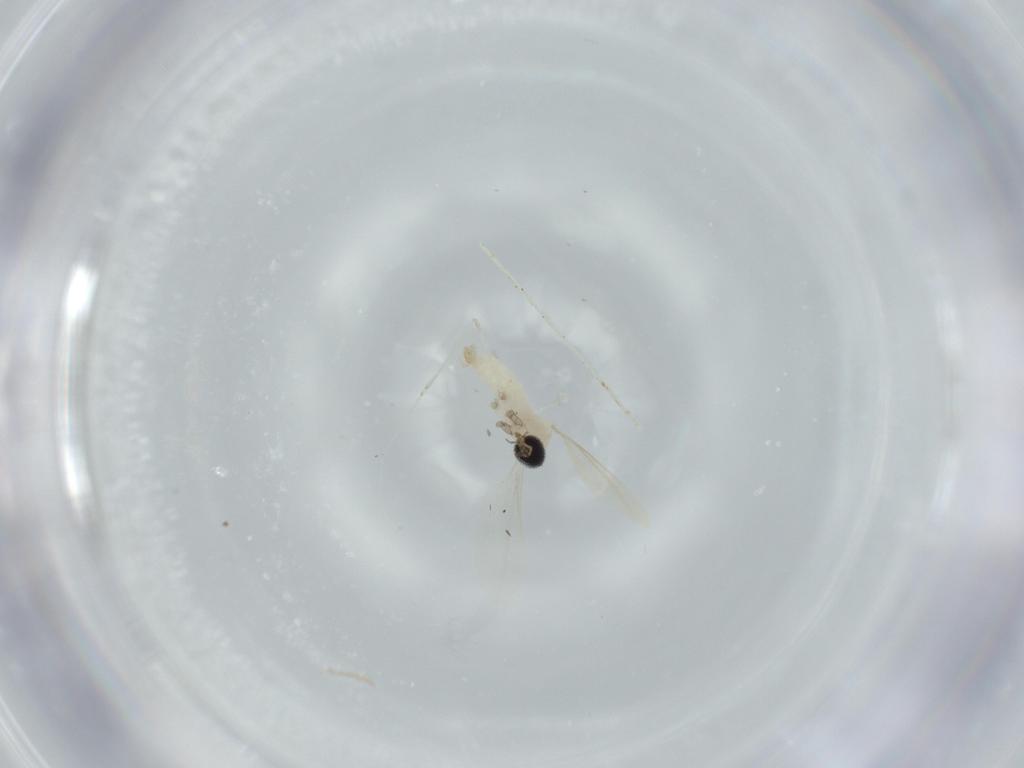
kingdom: Animalia
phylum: Arthropoda
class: Insecta
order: Diptera
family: Cecidomyiidae
